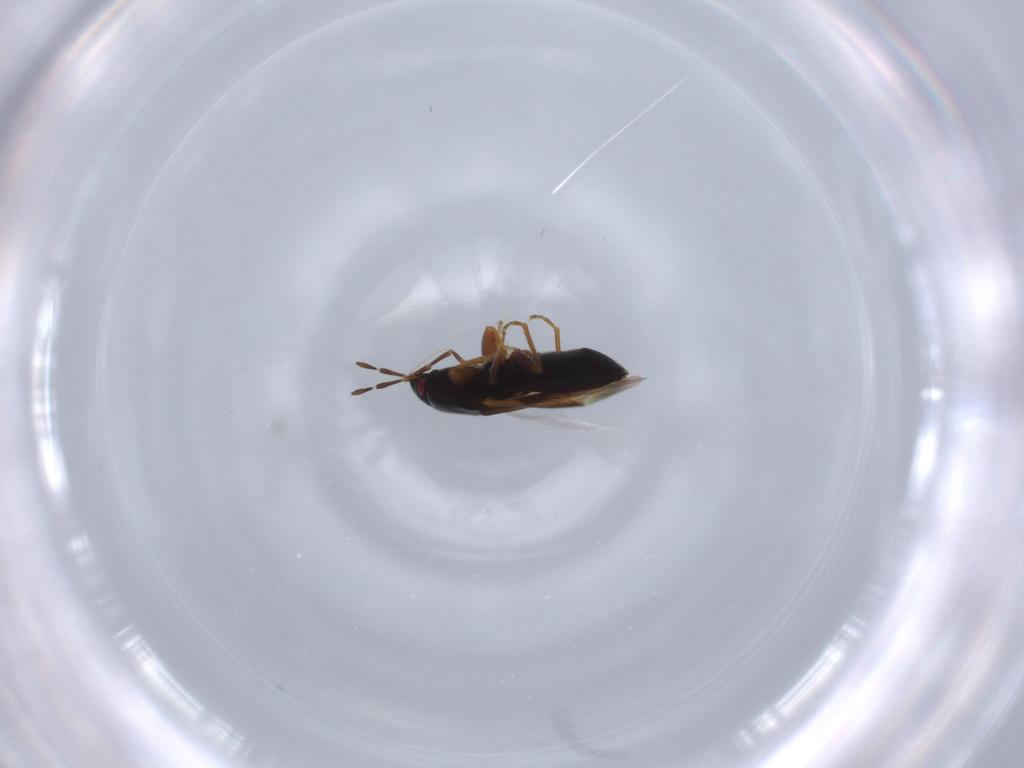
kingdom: Animalia
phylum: Arthropoda
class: Insecta
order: Hemiptera
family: Rhyparochromidae
